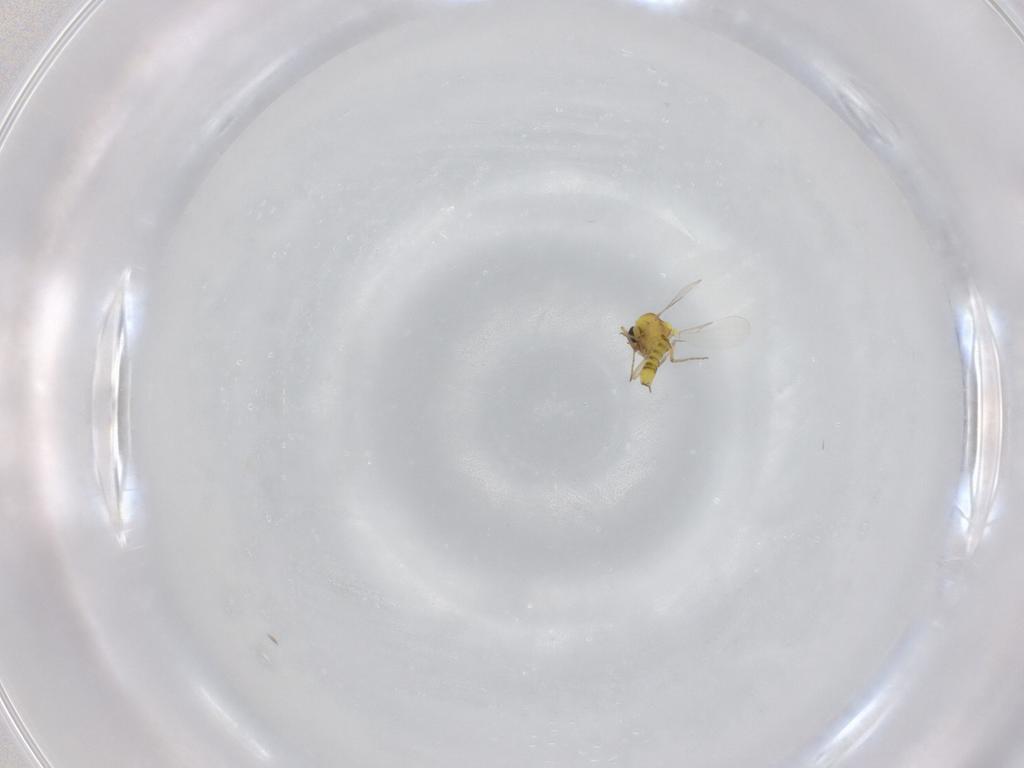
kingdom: Animalia
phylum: Arthropoda
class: Insecta
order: Diptera
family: Ceratopogonidae
